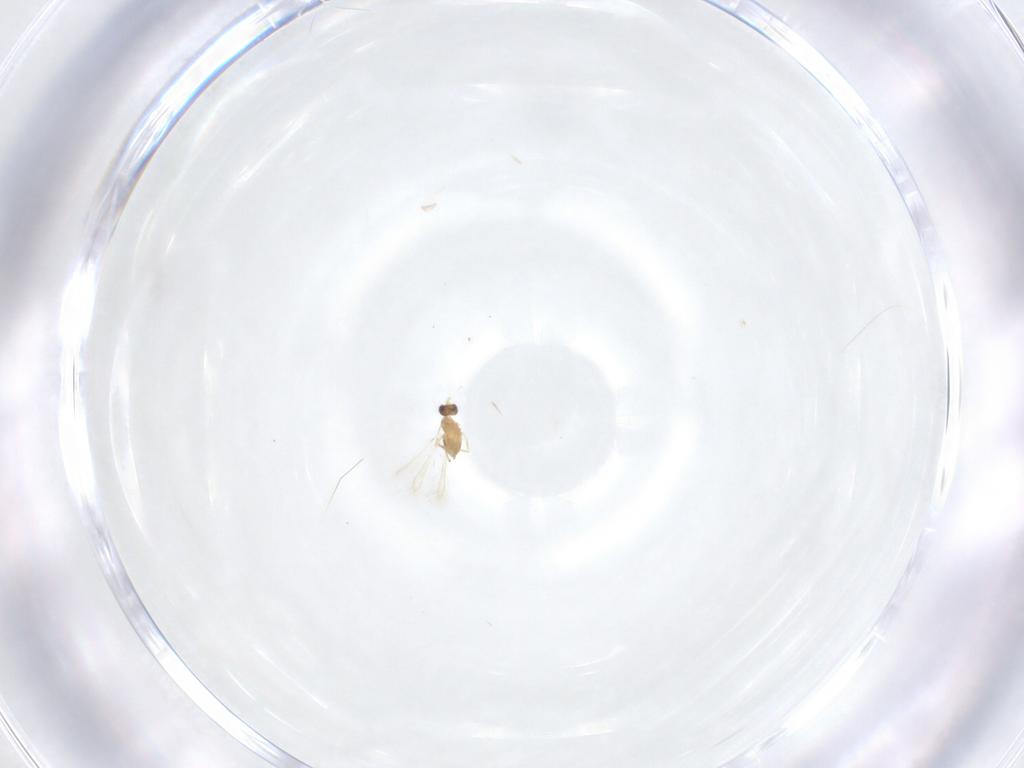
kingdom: Animalia
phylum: Arthropoda
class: Insecta
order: Hymenoptera
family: Mymaridae
